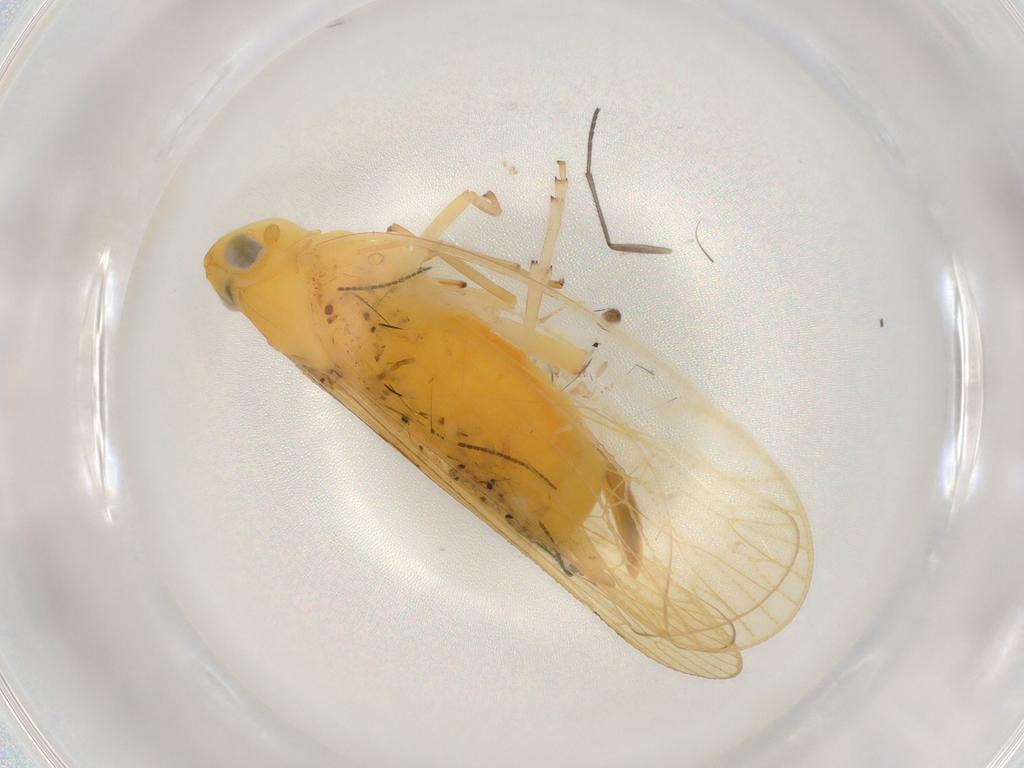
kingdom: Animalia
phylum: Arthropoda
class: Insecta
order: Hemiptera
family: Cixiidae
